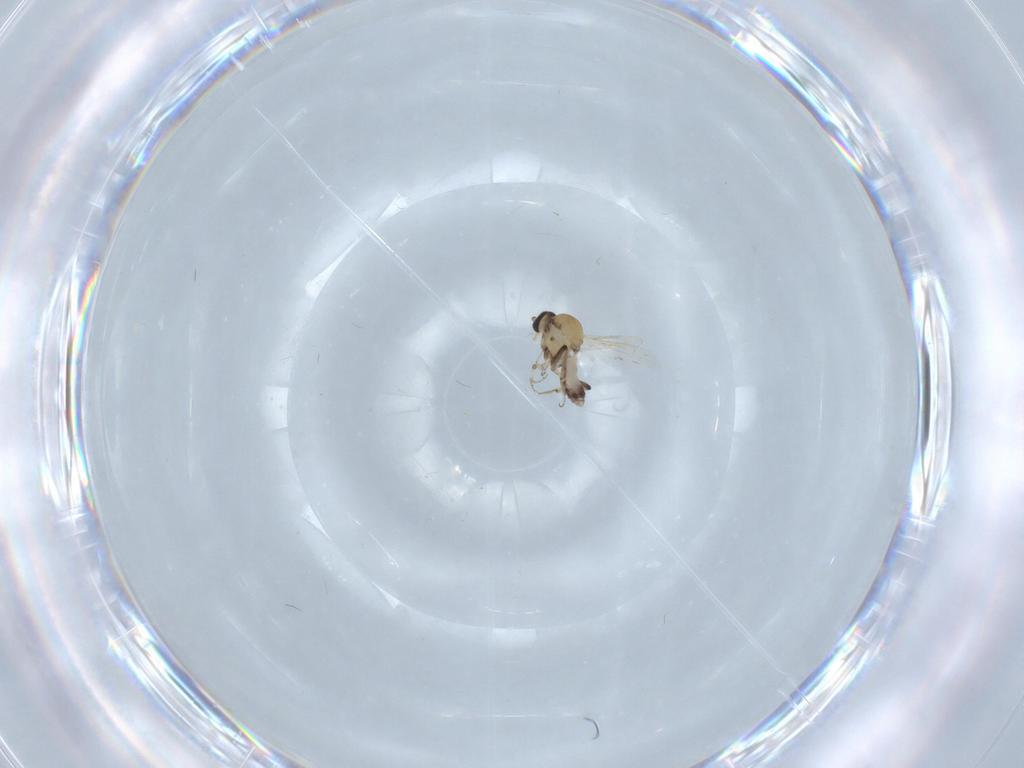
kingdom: Animalia
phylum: Arthropoda
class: Insecta
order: Diptera
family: Ceratopogonidae
